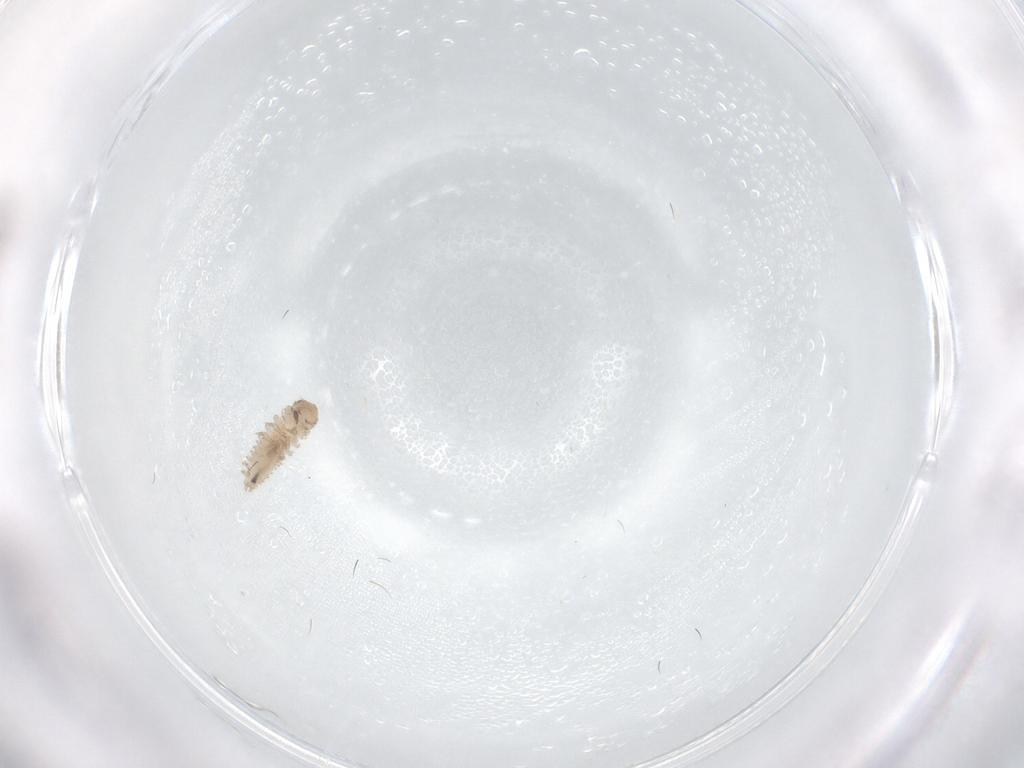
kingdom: Animalia
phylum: Arthropoda
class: Insecta
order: Coleoptera
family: Erotylidae
